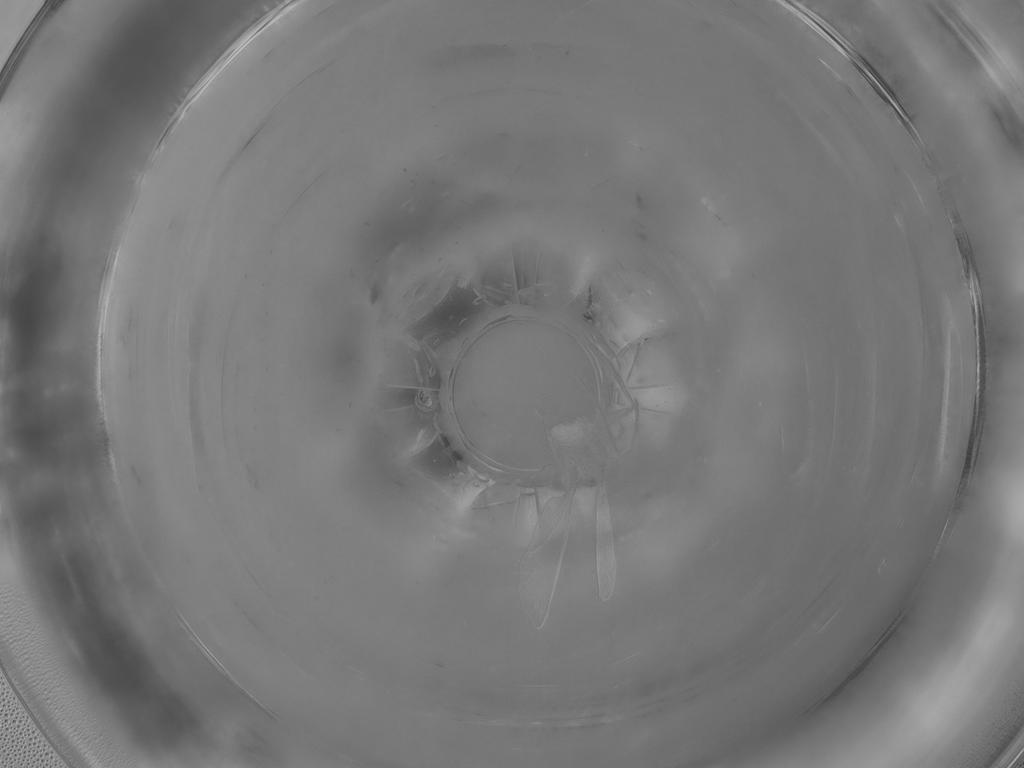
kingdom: Animalia
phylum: Arthropoda
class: Insecta
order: Diptera
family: Sciaridae
